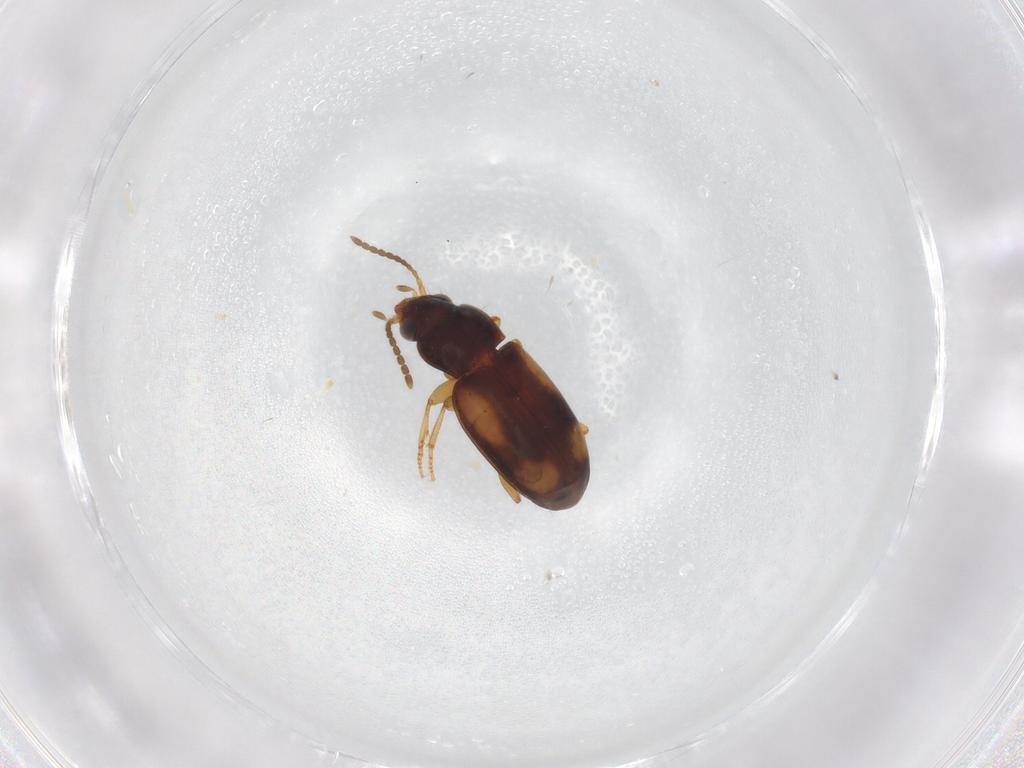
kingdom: Animalia
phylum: Arthropoda
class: Insecta
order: Coleoptera
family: Carabidae
